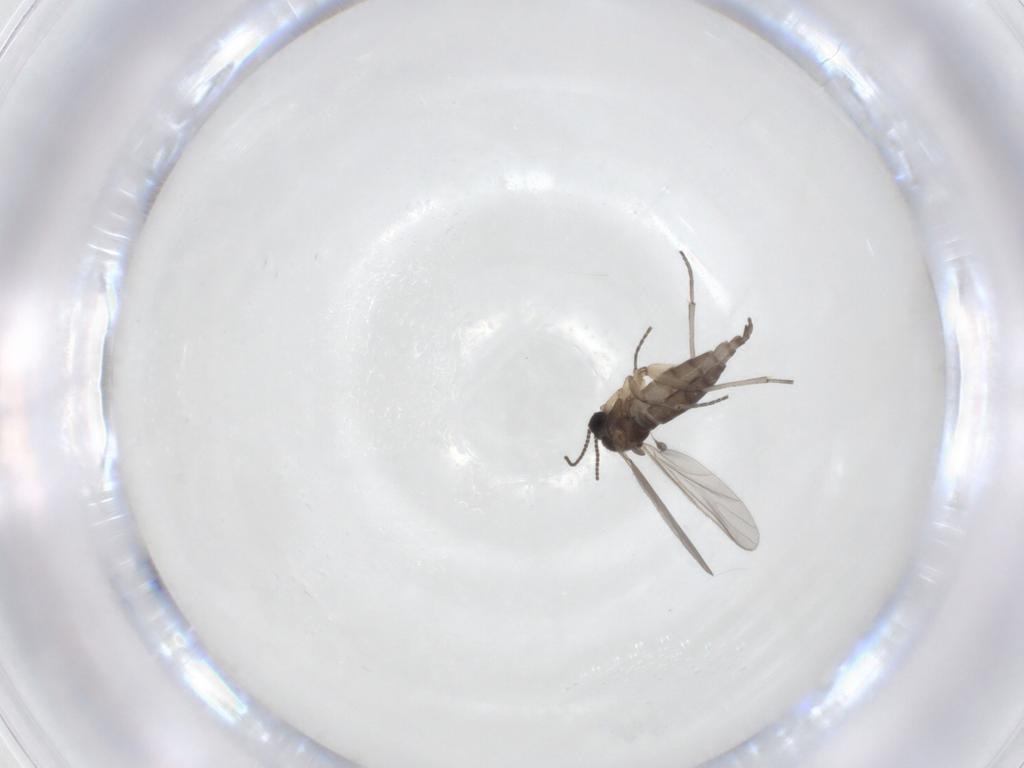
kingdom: Animalia
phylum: Arthropoda
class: Insecta
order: Diptera
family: Sciaridae
